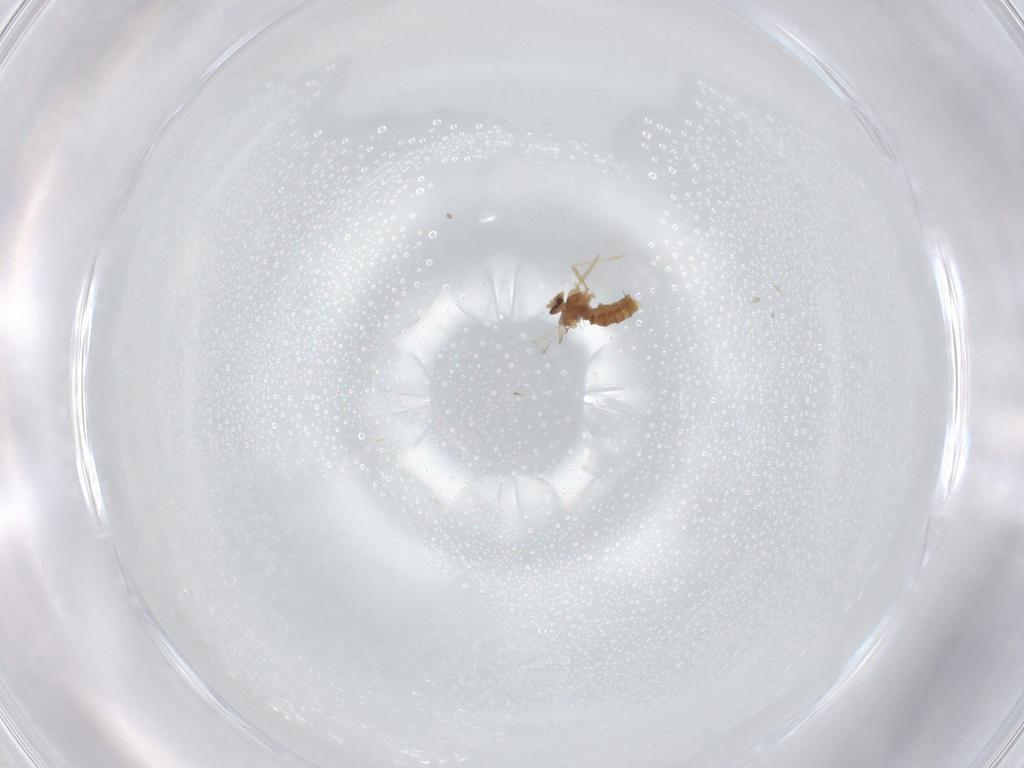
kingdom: Animalia
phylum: Arthropoda
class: Insecta
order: Diptera
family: Cecidomyiidae
